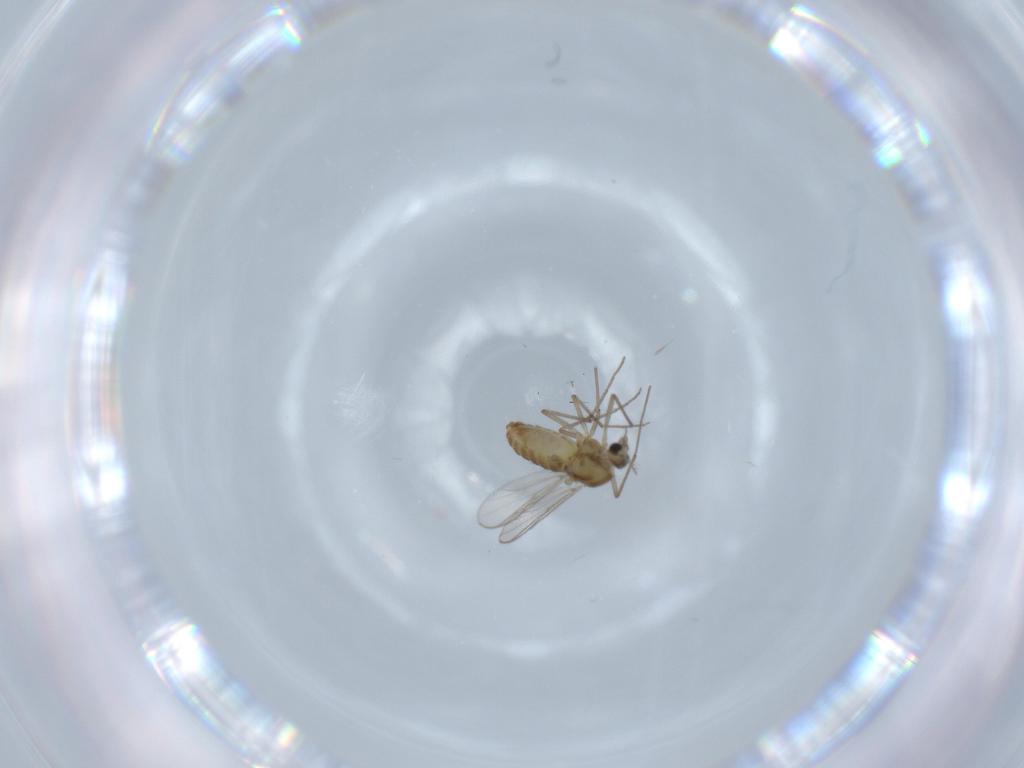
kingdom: Animalia
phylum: Arthropoda
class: Insecta
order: Diptera
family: Chironomidae
